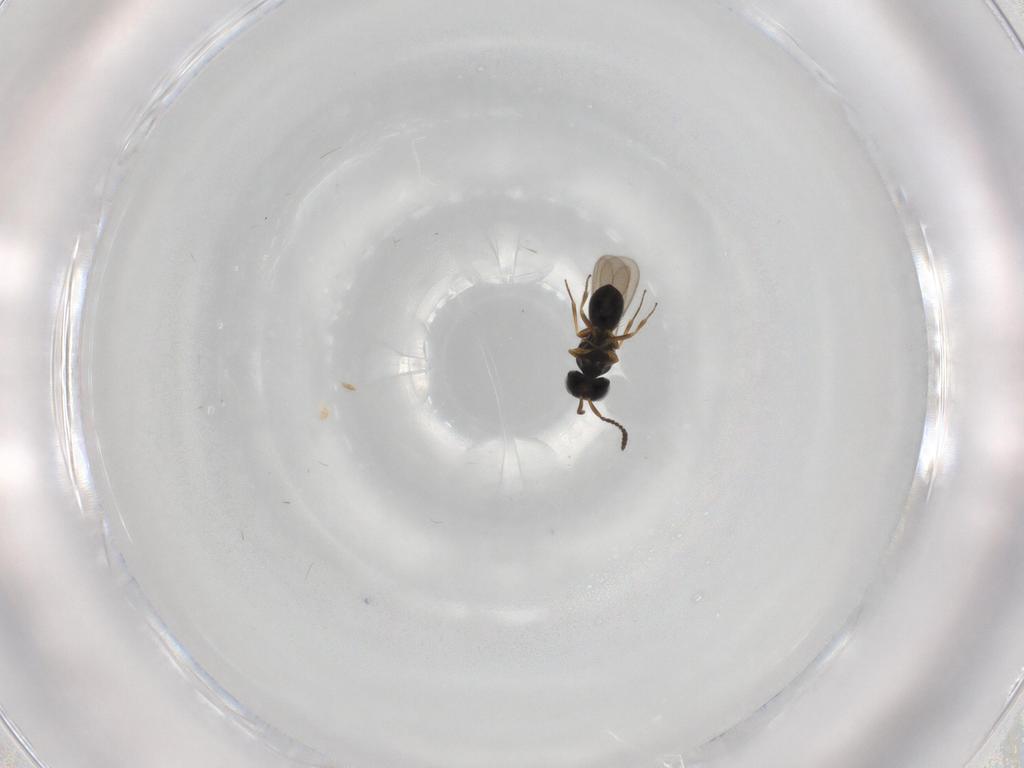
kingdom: Animalia
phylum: Arthropoda
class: Insecta
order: Hymenoptera
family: Scelionidae
